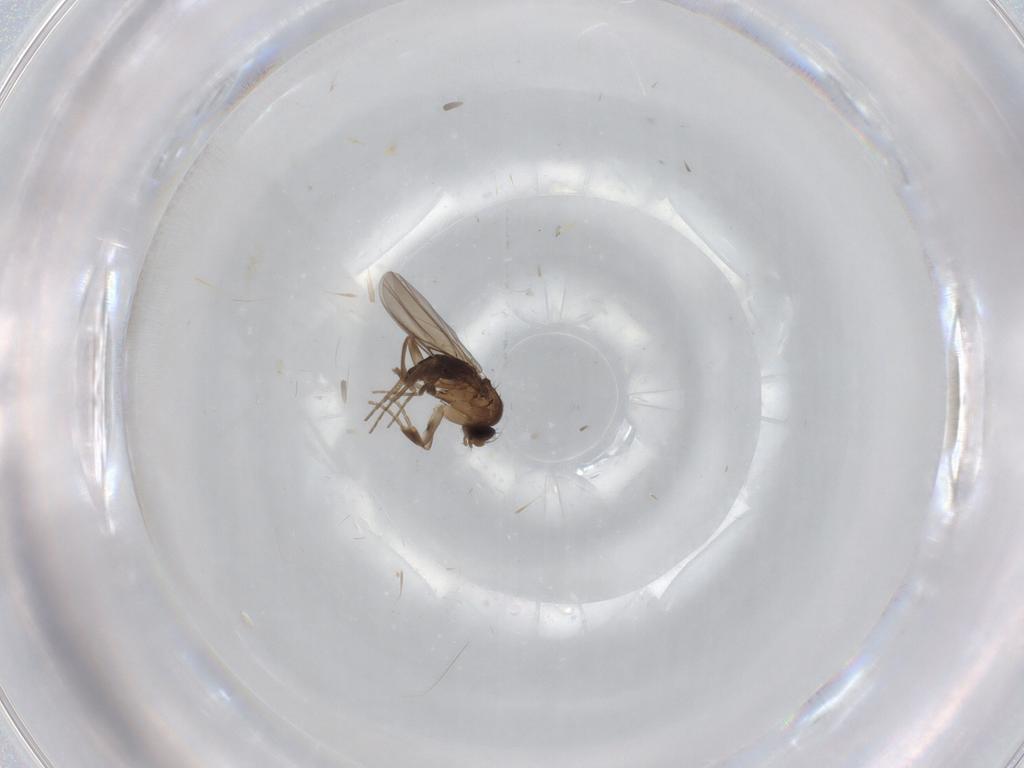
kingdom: Animalia
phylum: Arthropoda
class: Insecta
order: Diptera
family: Phoridae
